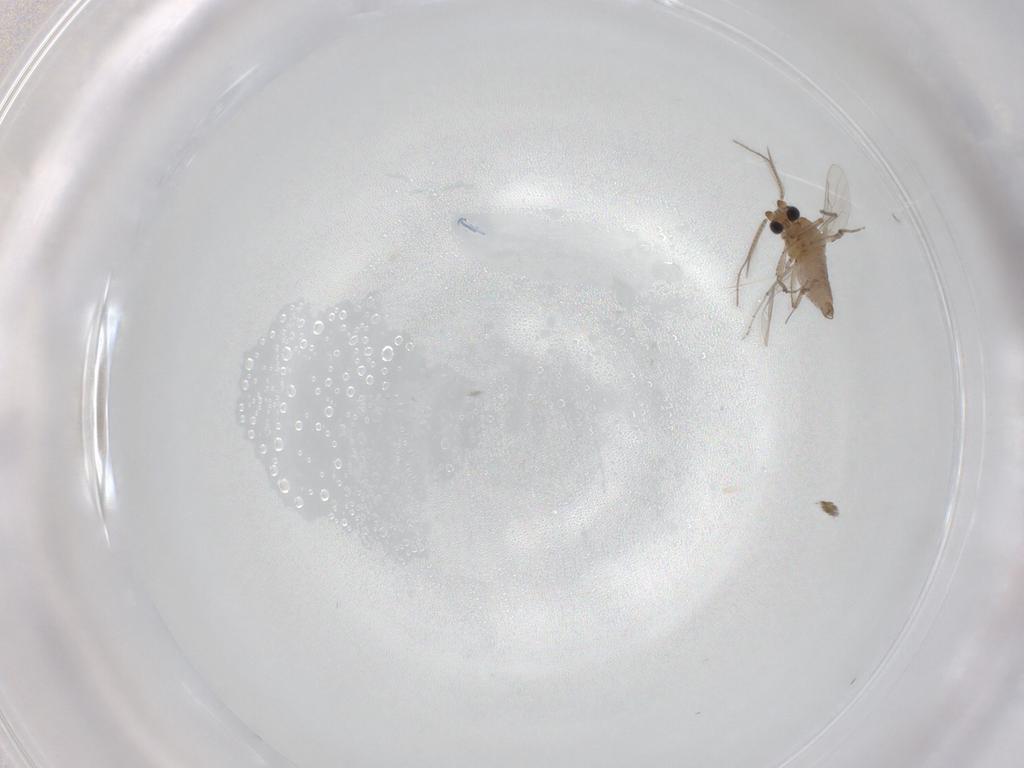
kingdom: Animalia
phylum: Arthropoda
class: Insecta
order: Diptera
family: Ceratopogonidae
